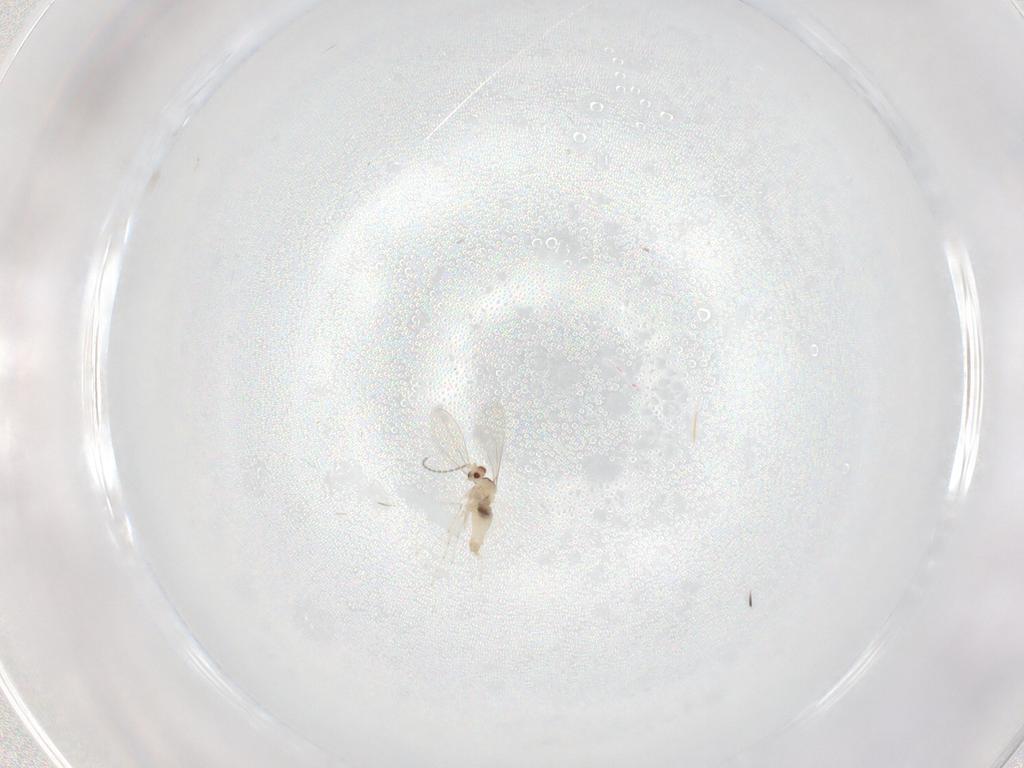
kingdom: Animalia
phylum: Arthropoda
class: Insecta
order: Diptera
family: Chironomidae
